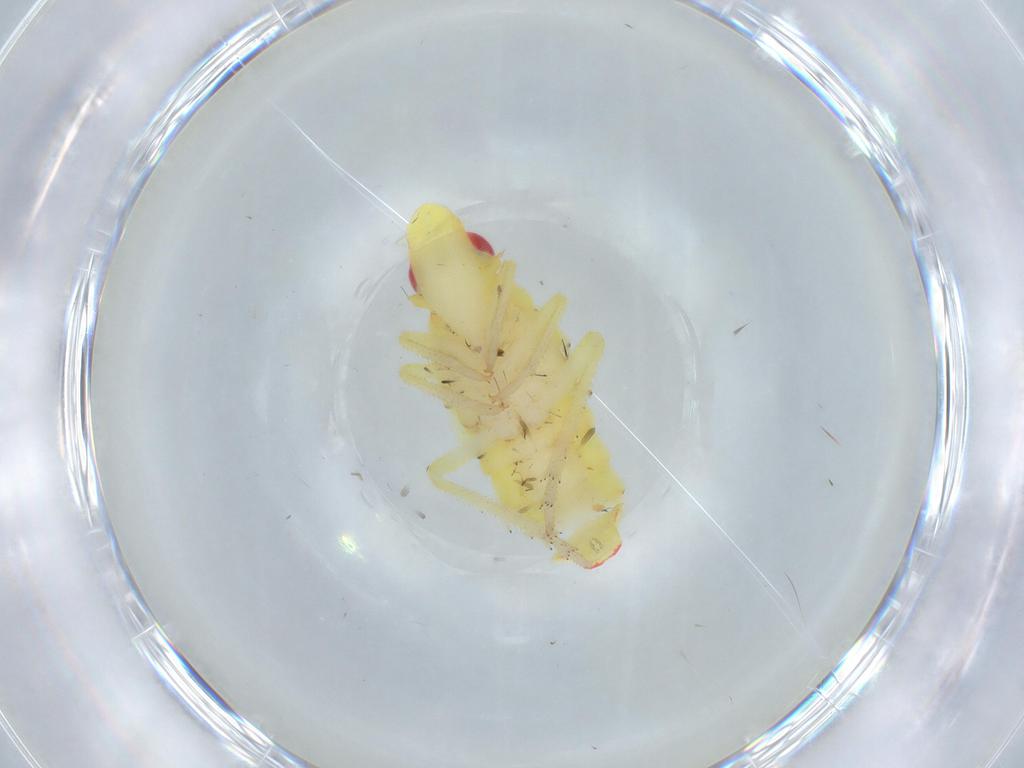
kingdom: Animalia
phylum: Arthropoda
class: Insecta
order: Hemiptera
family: Tropiduchidae
